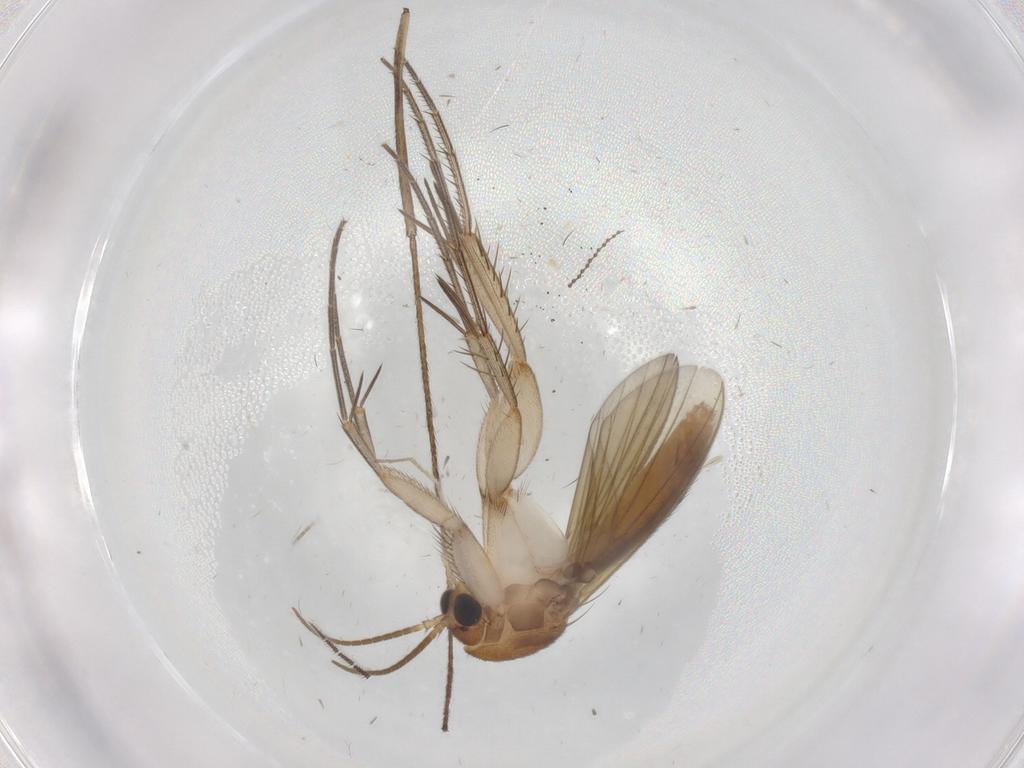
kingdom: Animalia
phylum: Arthropoda
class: Insecta
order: Diptera
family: Mycetophilidae
